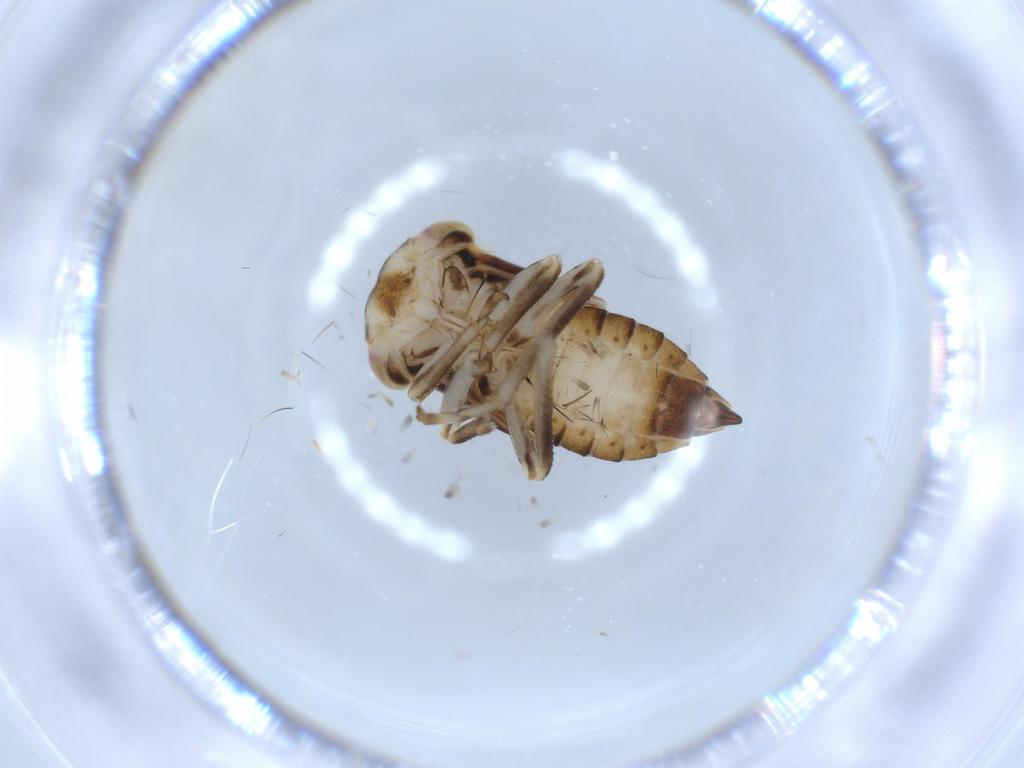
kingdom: Animalia
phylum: Arthropoda
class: Insecta
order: Hemiptera
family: Cicadellidae
